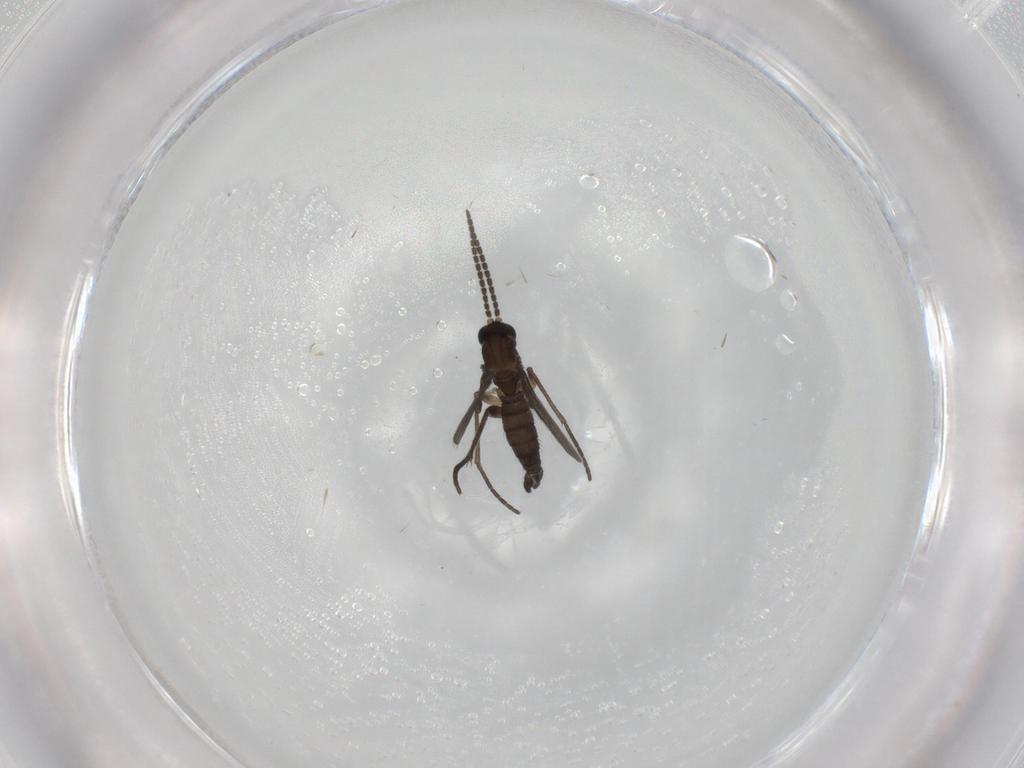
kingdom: Animalia
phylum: Arthropoda
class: Insecta
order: Diptera
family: Sciaridae
